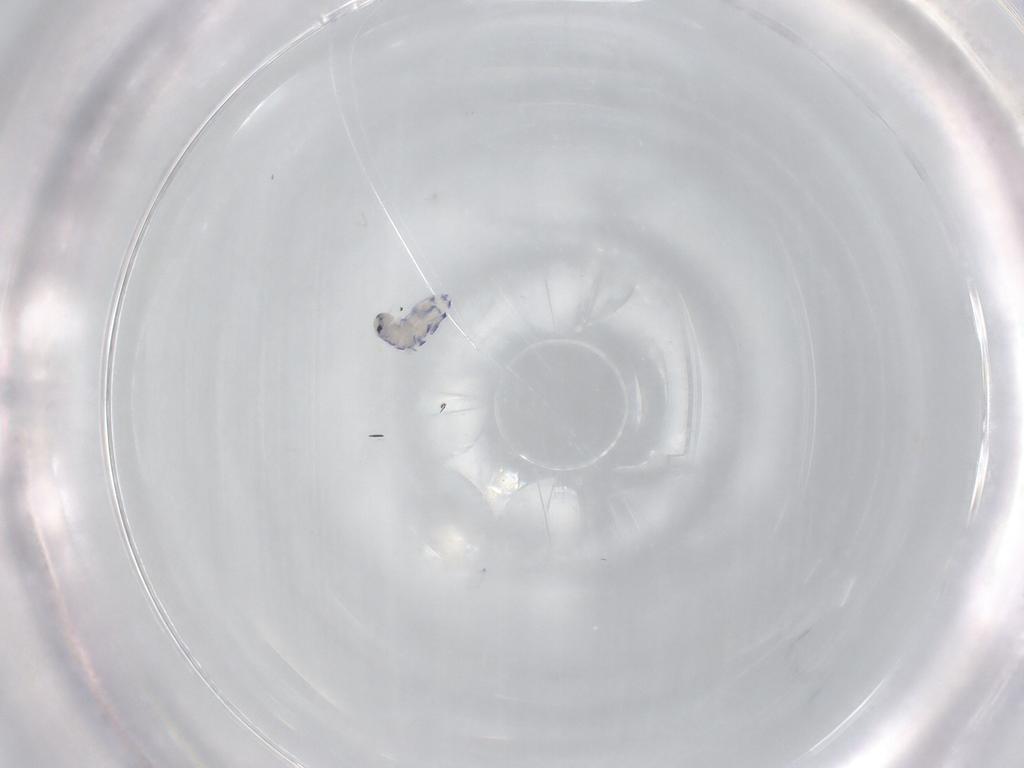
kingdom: Animalia
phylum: Arthropoda
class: Collembola
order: Entomobryomorpha
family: Entomobryidae
